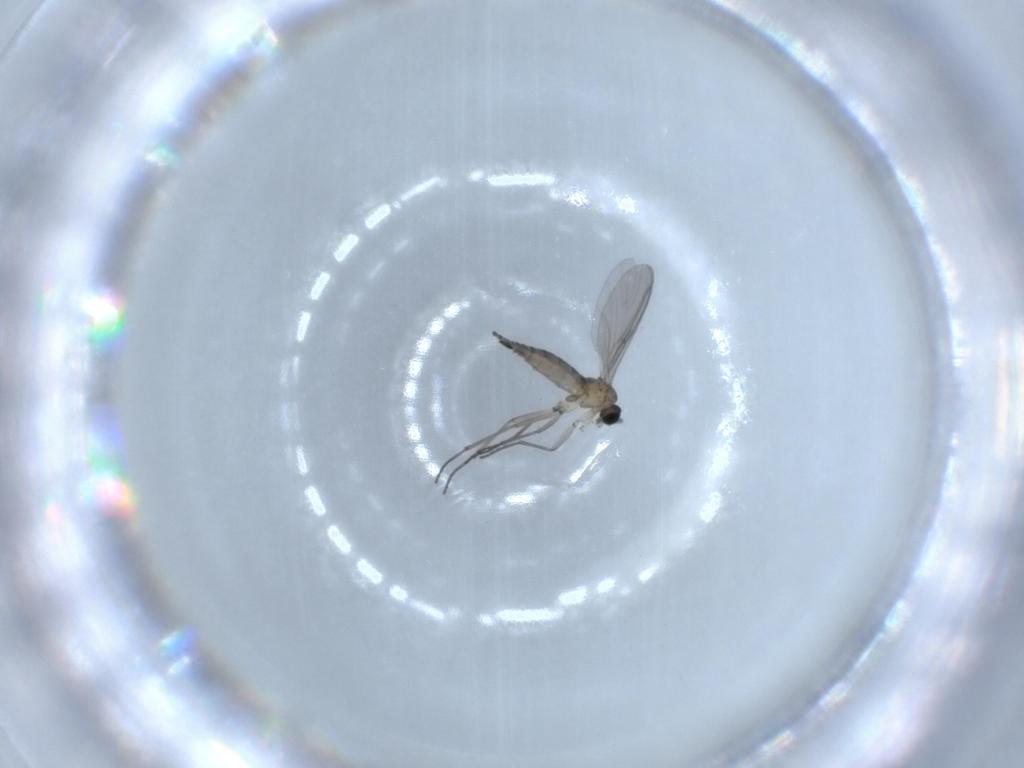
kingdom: Animalia
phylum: Arthropoda
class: Insecta
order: Diptera
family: Sciaridae
